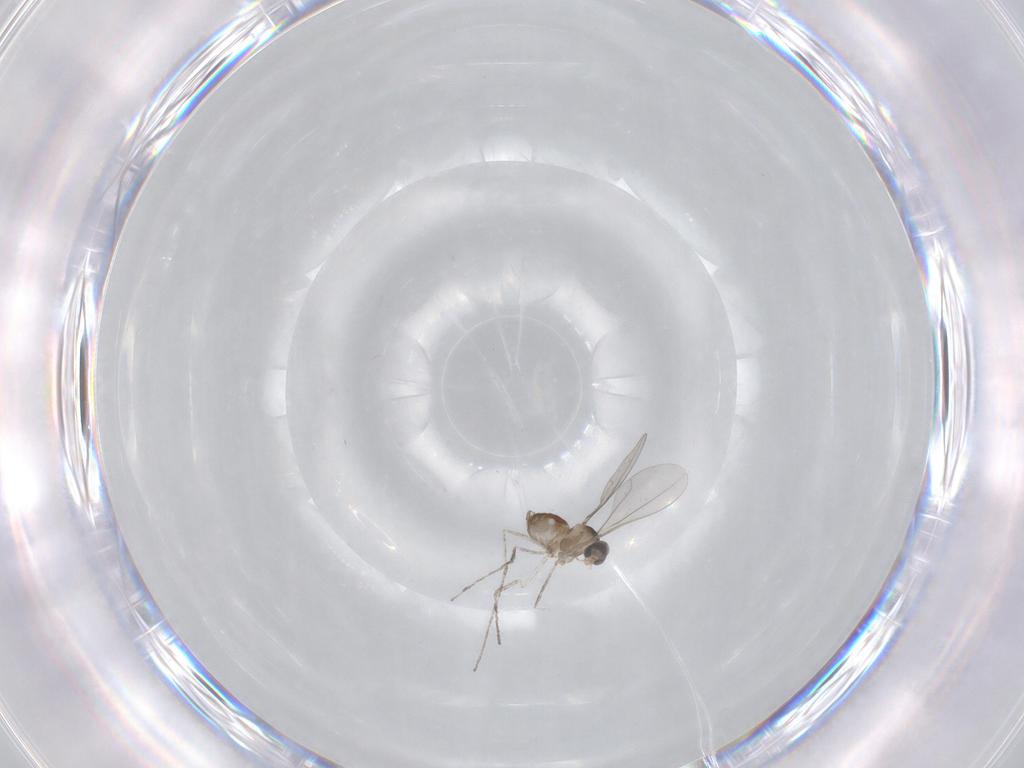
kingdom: Animalia
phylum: Arthropoda
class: Insecta
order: Diptera
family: Cecidomyiidae
